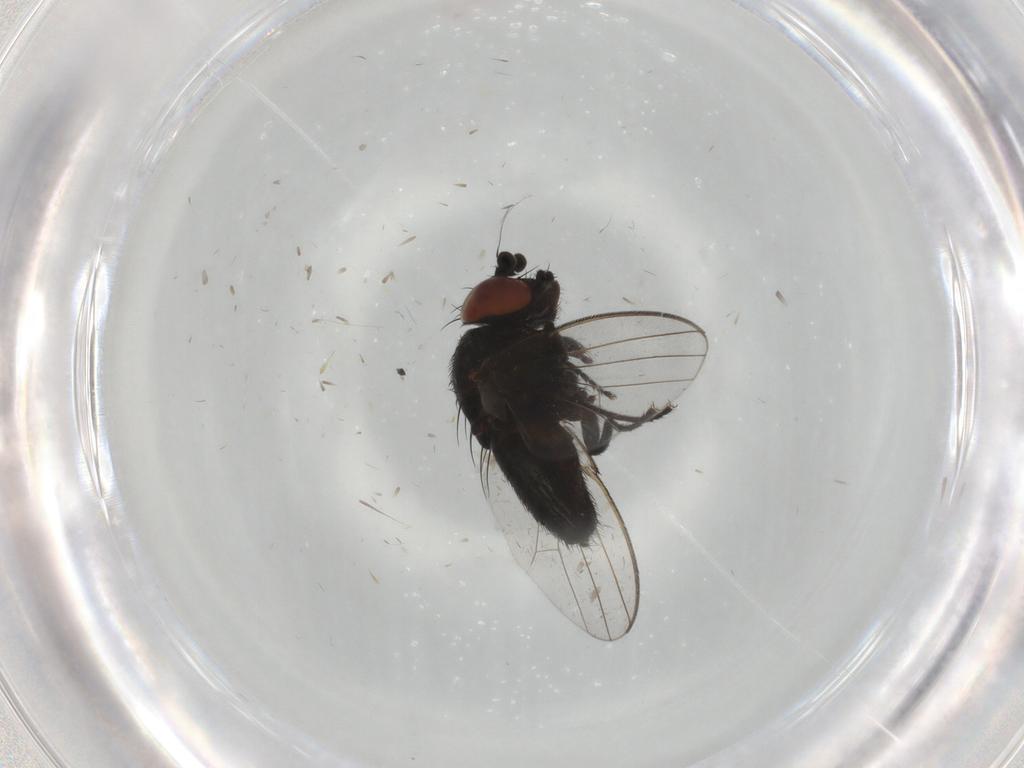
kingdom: Animalia
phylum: Arthropoda
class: Insecta
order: Diptera
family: Milichiidae
